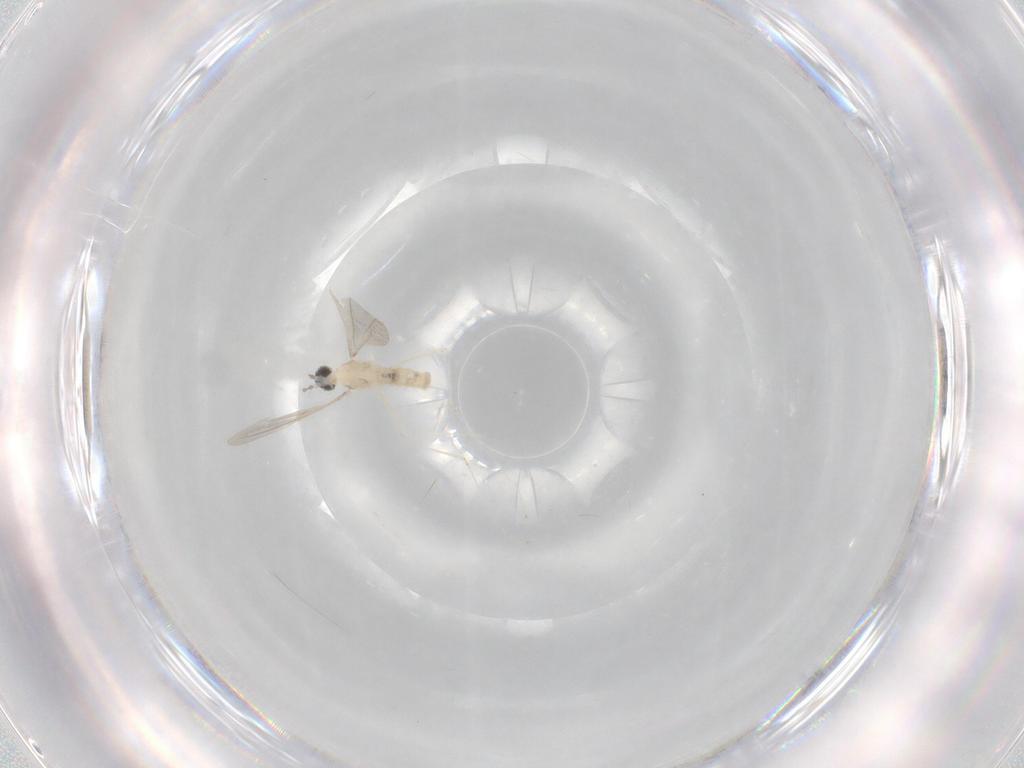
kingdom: Animalia
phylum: Arthropoda
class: Insecta
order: Diptera
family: Cecidomyiidae
